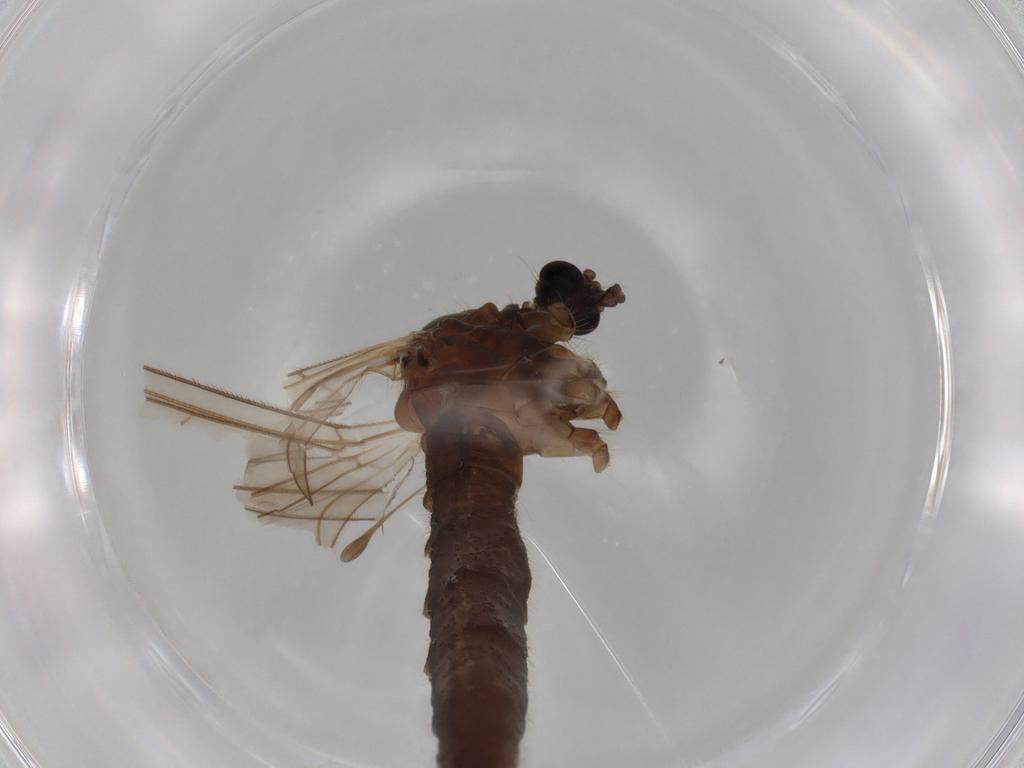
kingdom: Animalia
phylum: Arthropoda
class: Insecta
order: Diptera
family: Trichoceridae
